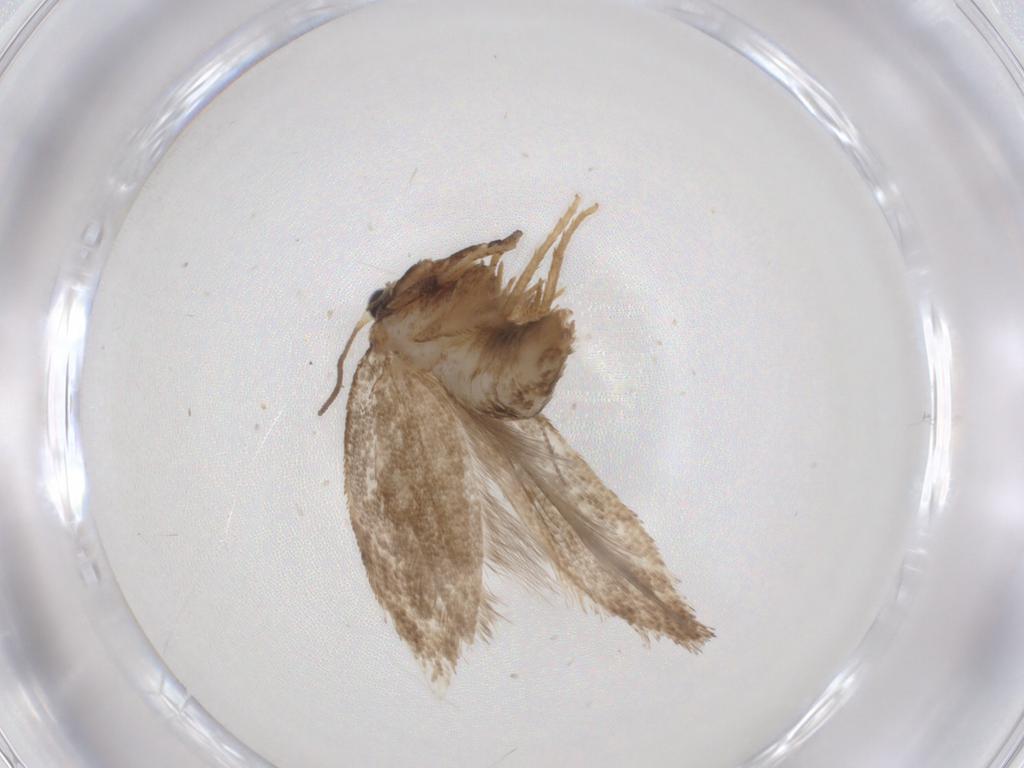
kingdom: Animalia
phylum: Arthropoda
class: Insecta
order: Lepidoptera
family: Nepticulidae
